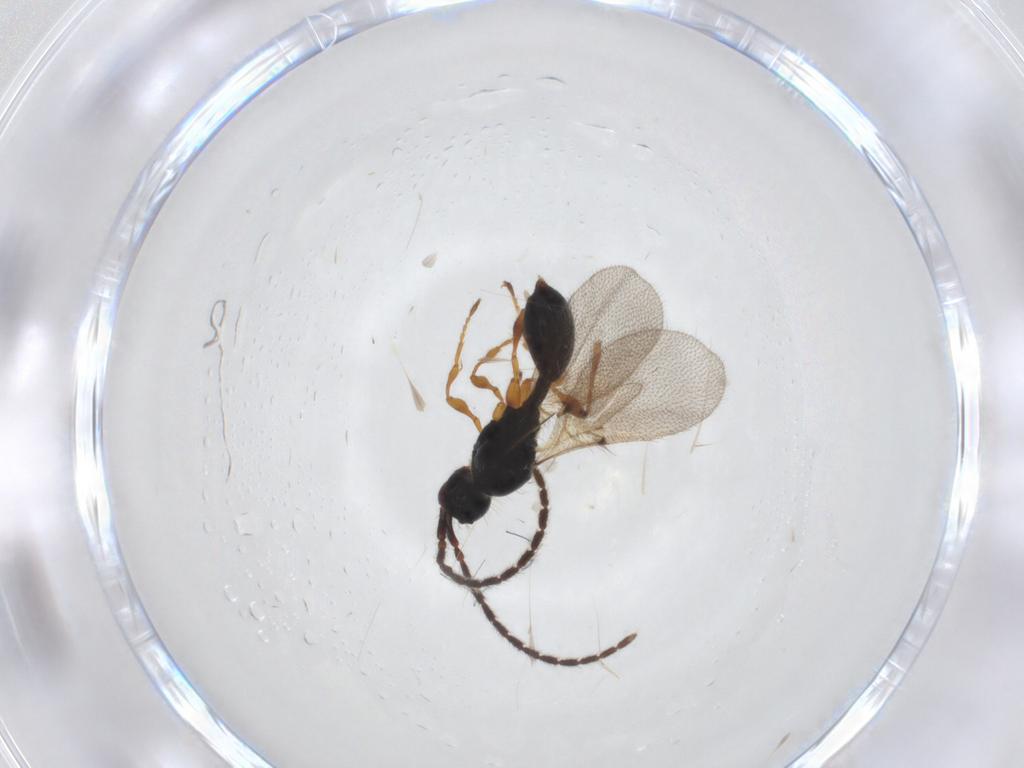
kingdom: Animalia
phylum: Arthropoda
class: Insecta
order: Hymenoptera
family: Diapriidae
